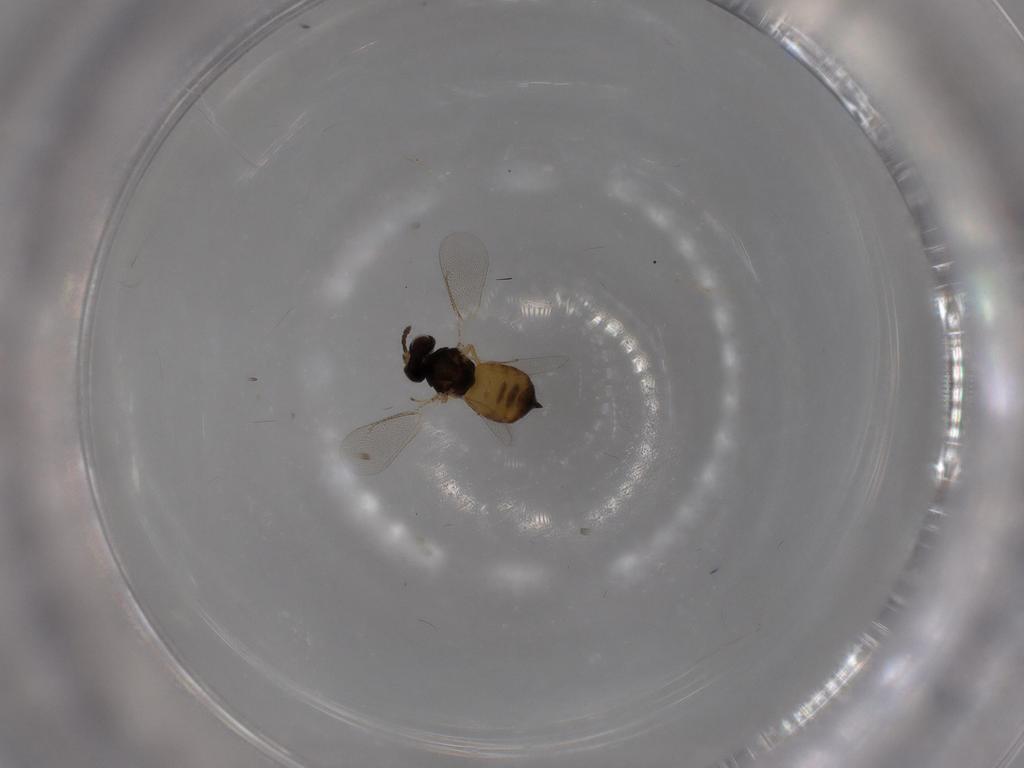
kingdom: Animalia
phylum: Arthropoda
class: Insecta
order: Hymenoptera
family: Eulophidae
